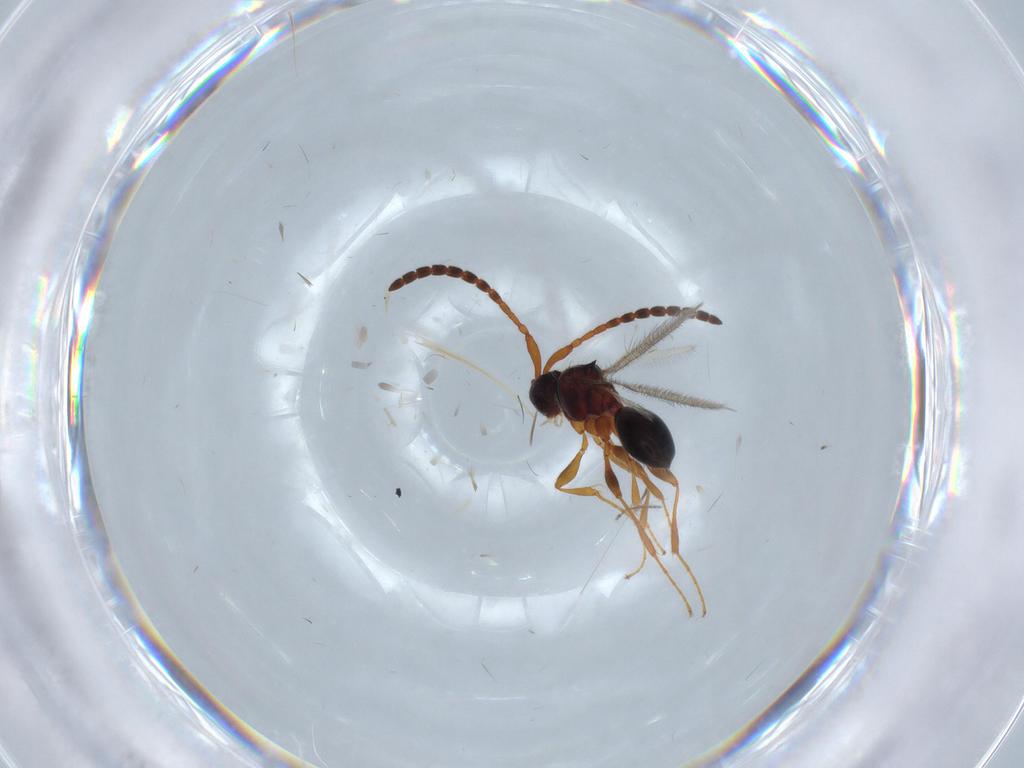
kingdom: Animalia
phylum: Arthropoda
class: Insecta
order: Hymenoptera
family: Diapriidae
